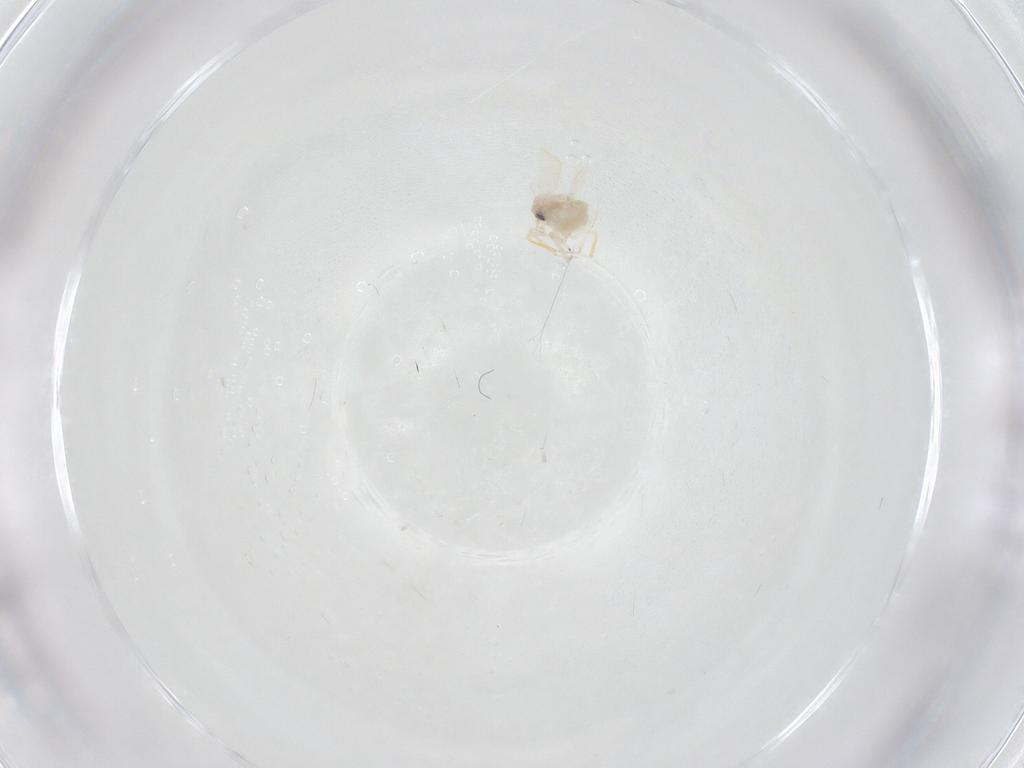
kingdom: Animalia
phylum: Arthropoda
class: Insecta
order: Hemiptera
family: Aleyrodidae
